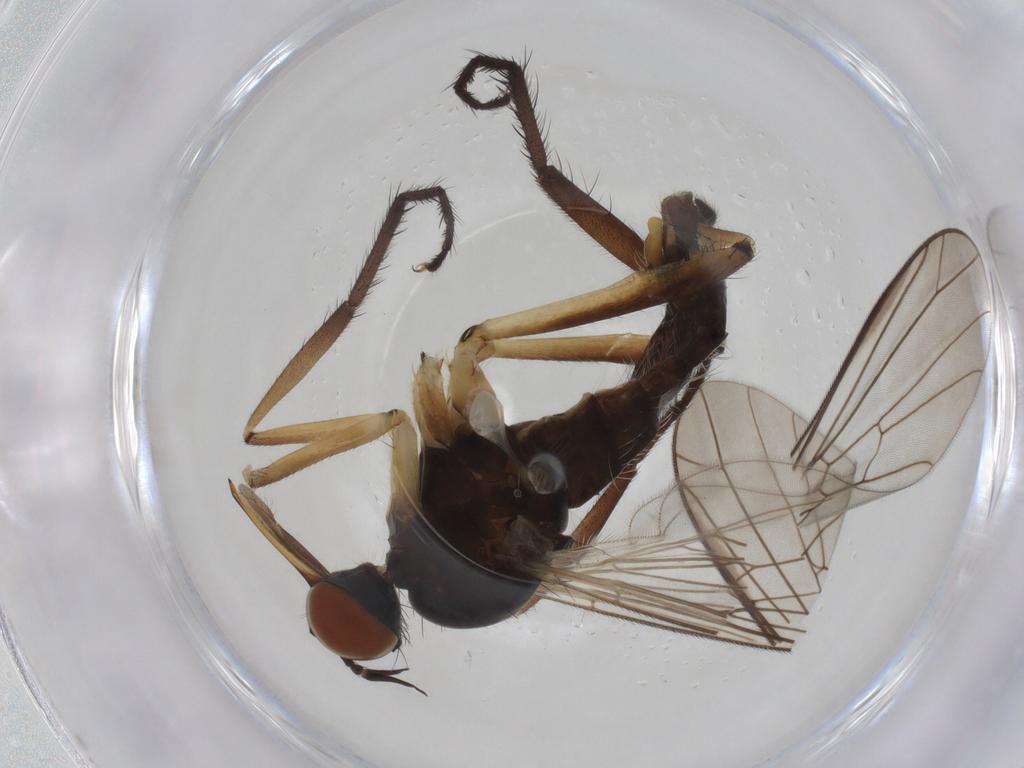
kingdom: Animalia
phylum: Arthropoda
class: Insecta
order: Diptera
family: Empididae
